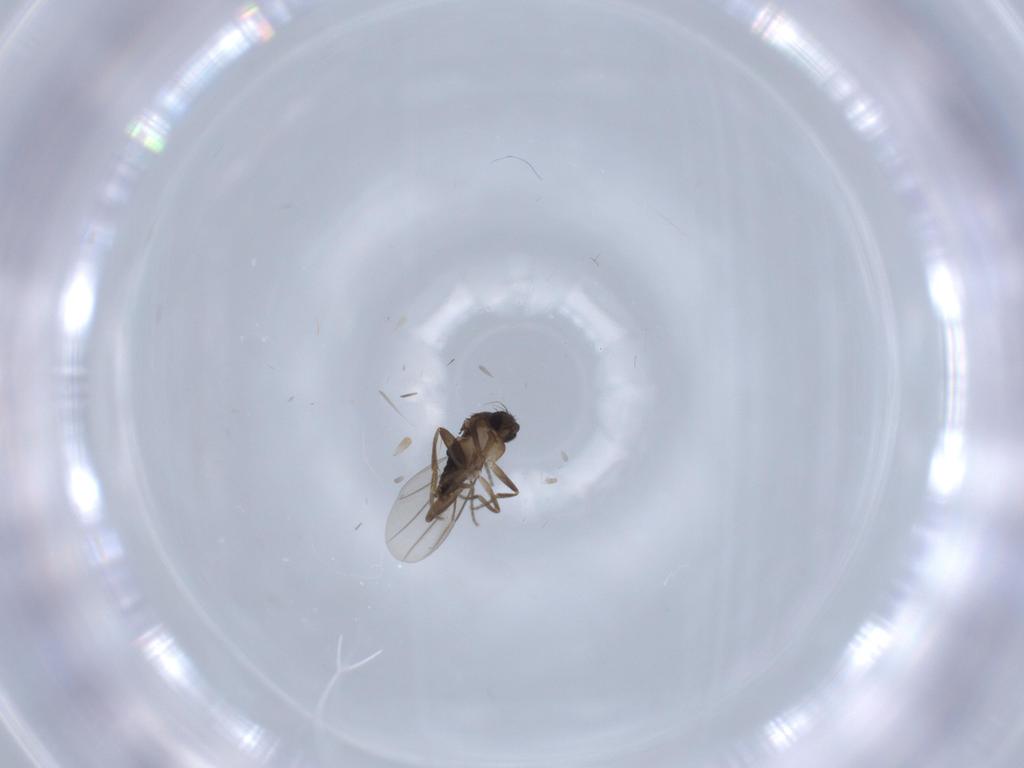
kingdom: Animalia
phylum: Arthropoda
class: Insecta
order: Diptera
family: Phoridae
